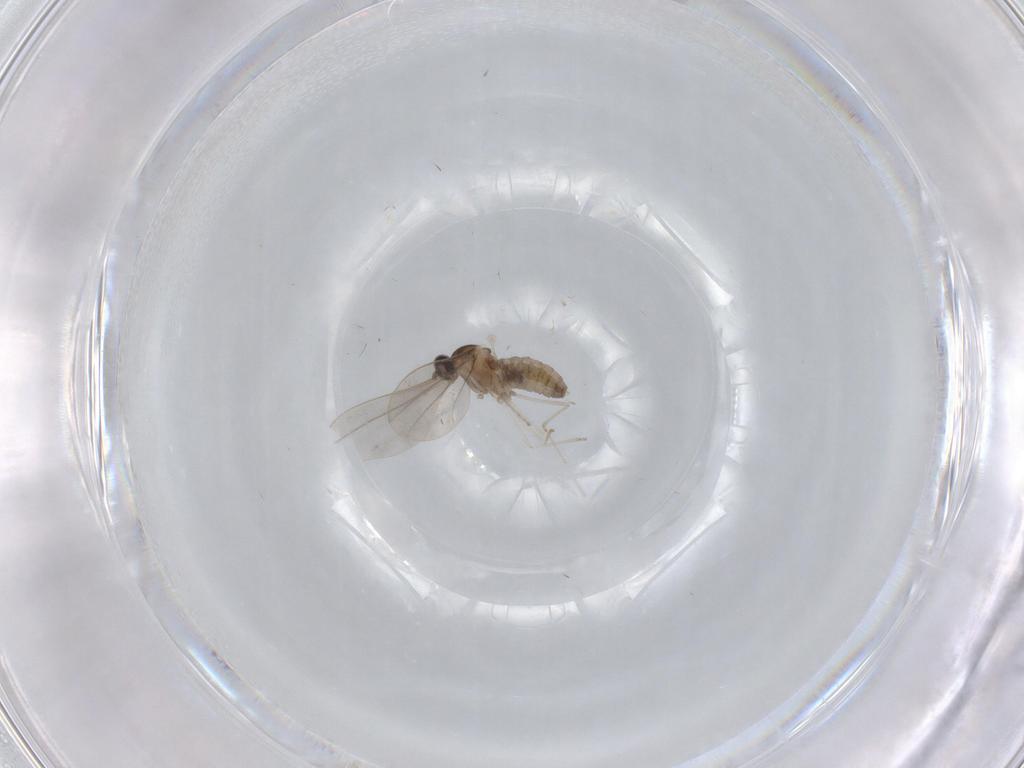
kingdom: Animalia
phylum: Arthropoda
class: Insecta
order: Diptera
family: Cecidomyiidae
